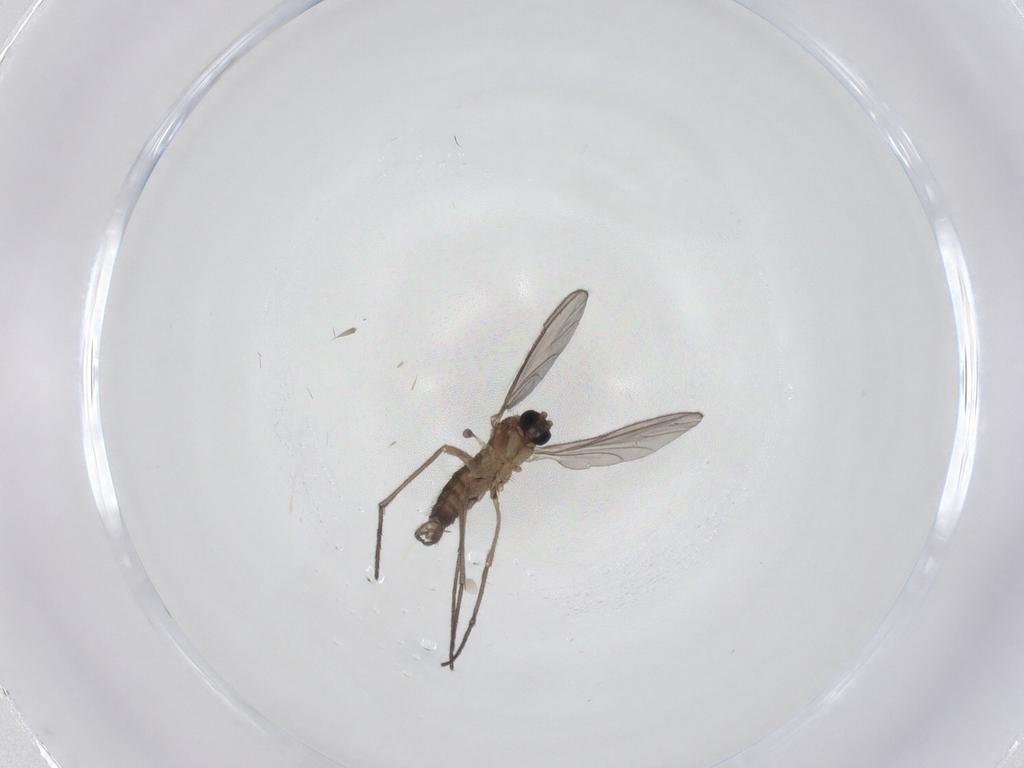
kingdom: Animalia
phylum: Arthropoda
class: Insecta
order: Diptera
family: Sciaridae
